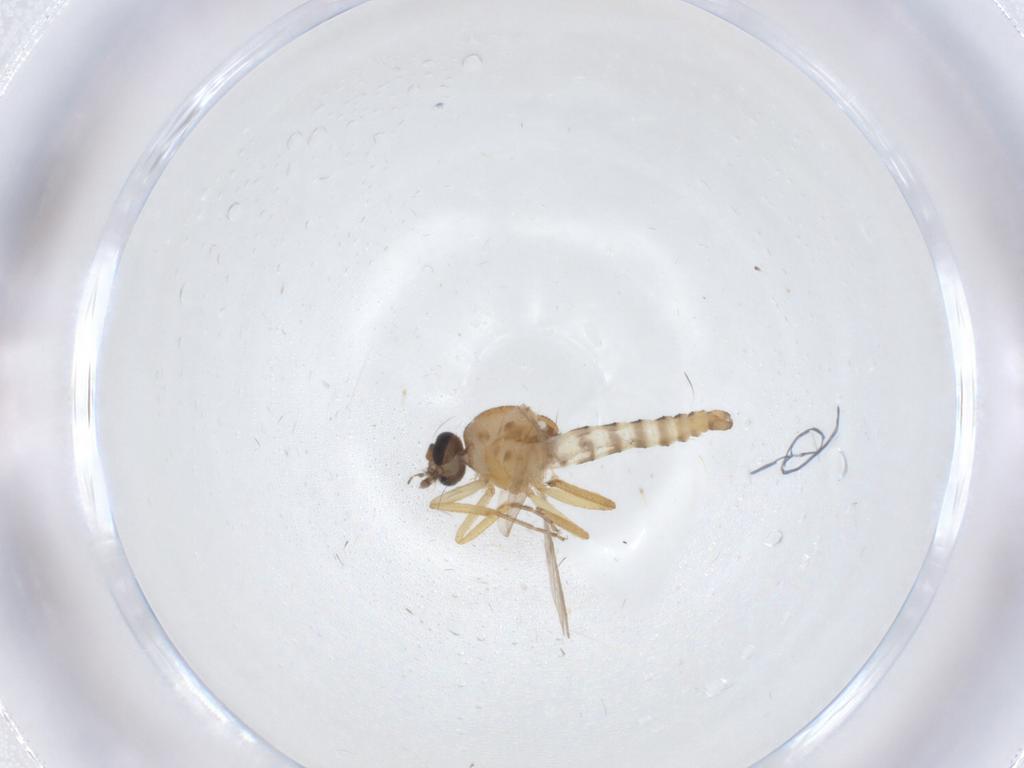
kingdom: Animalia
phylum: Arthropoda
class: Insecta
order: Diptera
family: Ceratopogonidae
